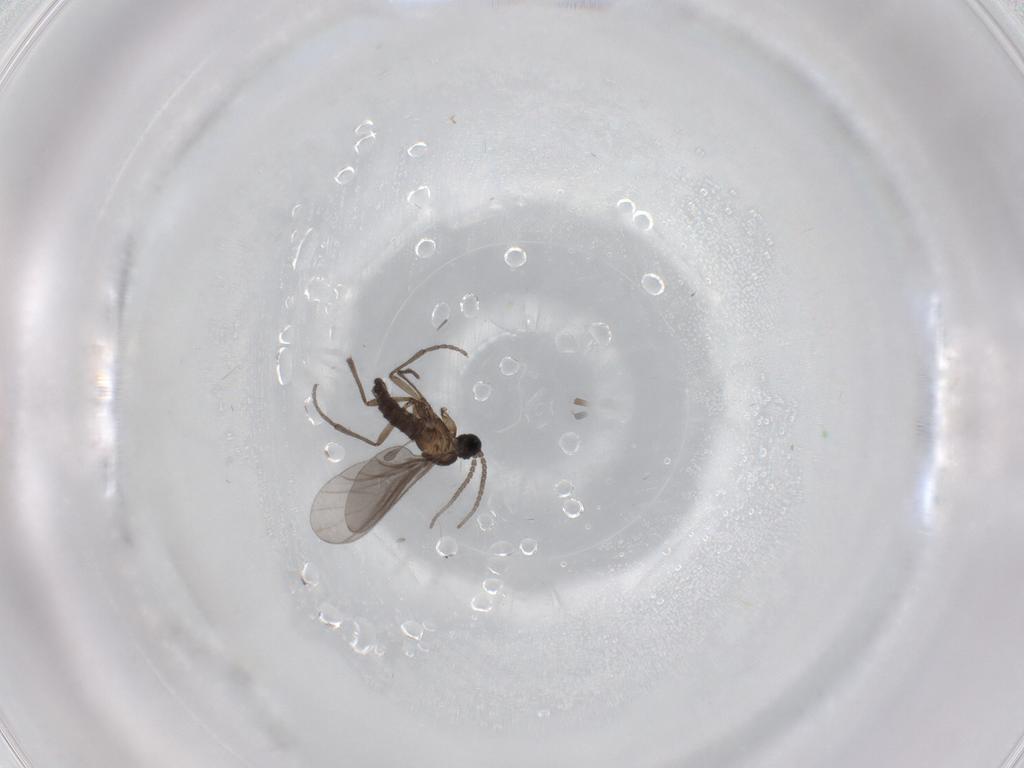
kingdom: Animalia
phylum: Arthropoda
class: Insecta
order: Diptera
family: Sciaridae
